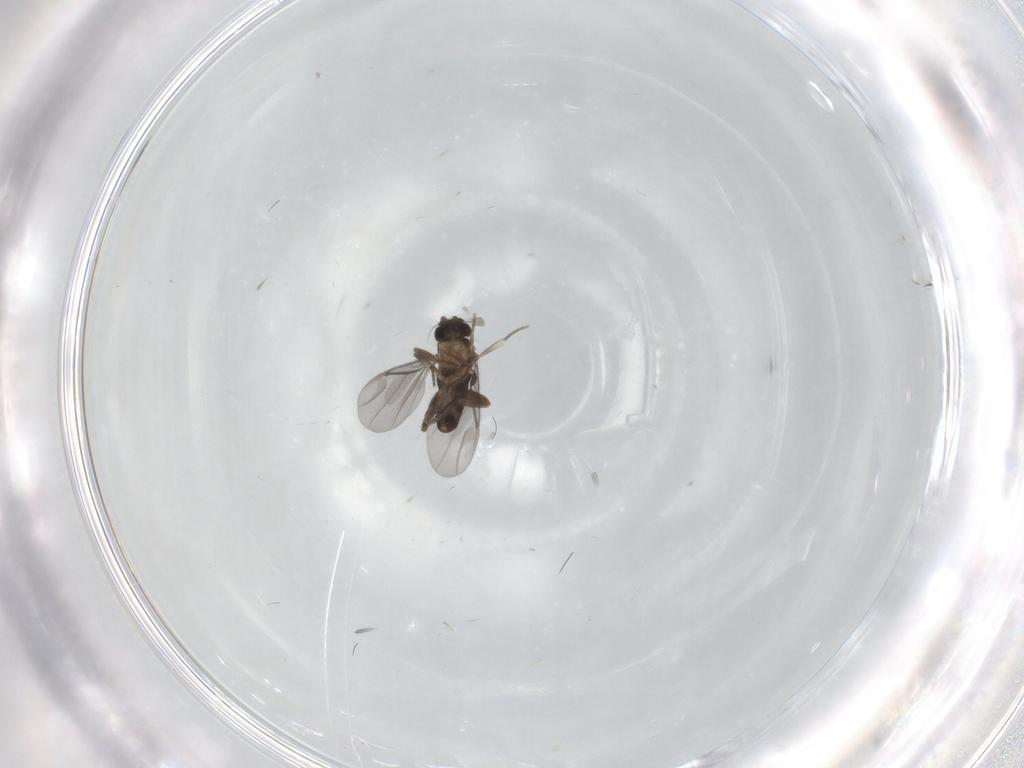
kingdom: Animalia
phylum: Arthropoda
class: Insecta
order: Diptera
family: Phoridae
